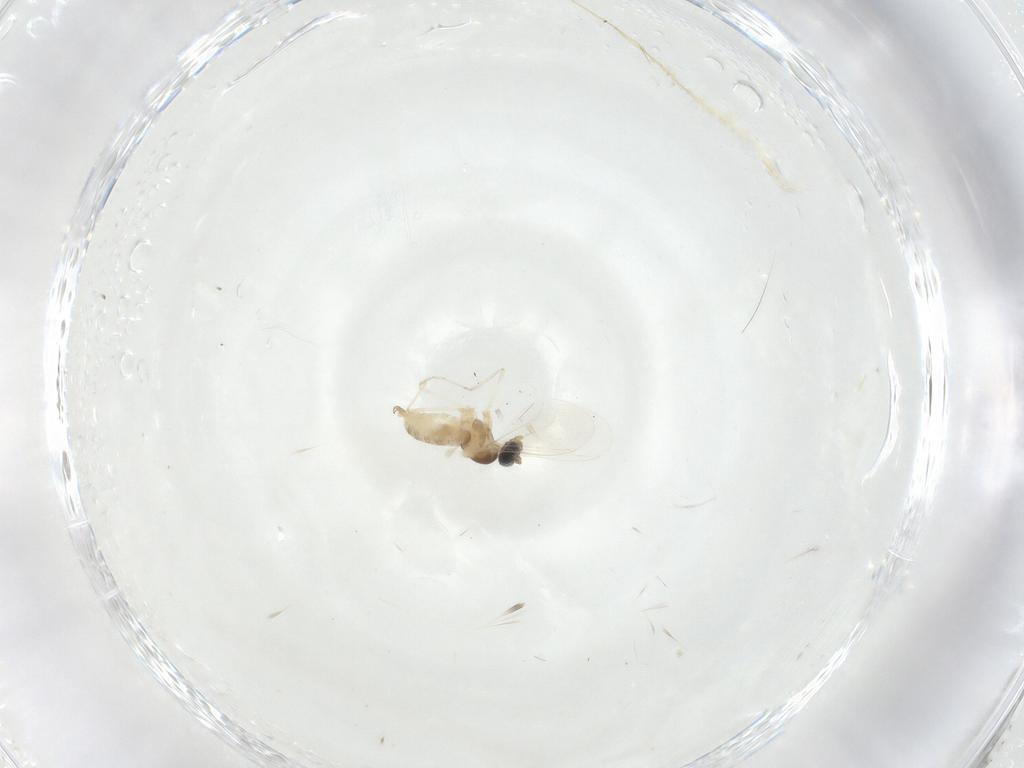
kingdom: Animalia
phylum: Arthropoda
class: Insecta
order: Diptera
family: Cecidomyiidae
